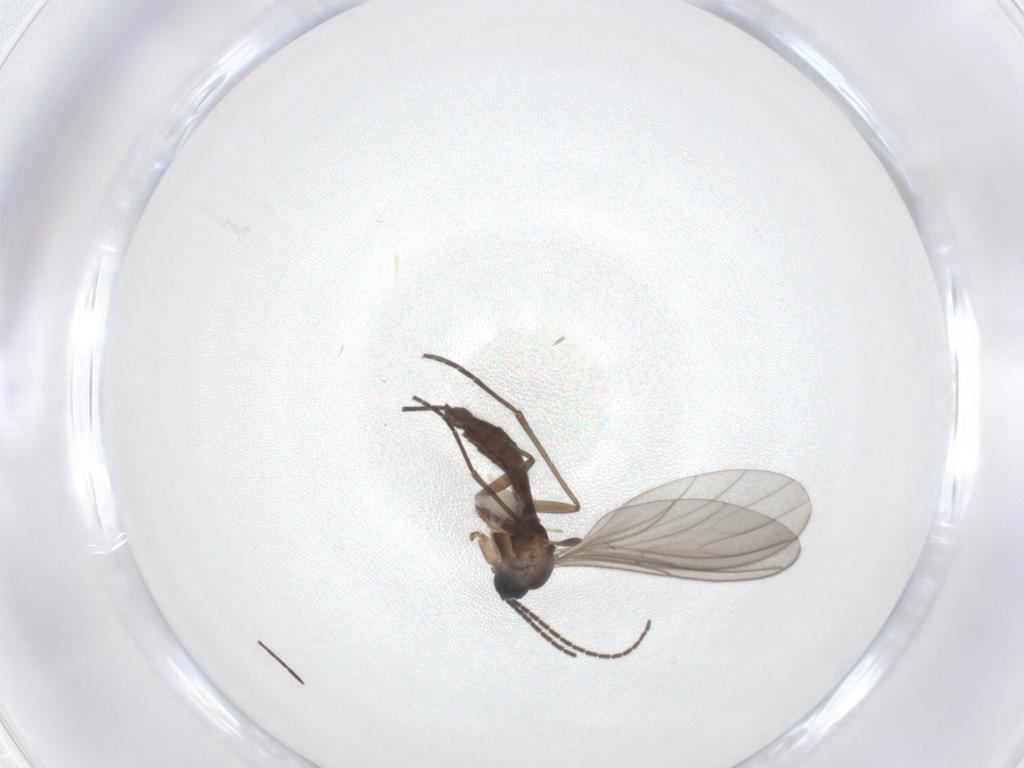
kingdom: Animalia
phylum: Arthropoda
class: Insecta
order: Diptera
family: Sciaridae
